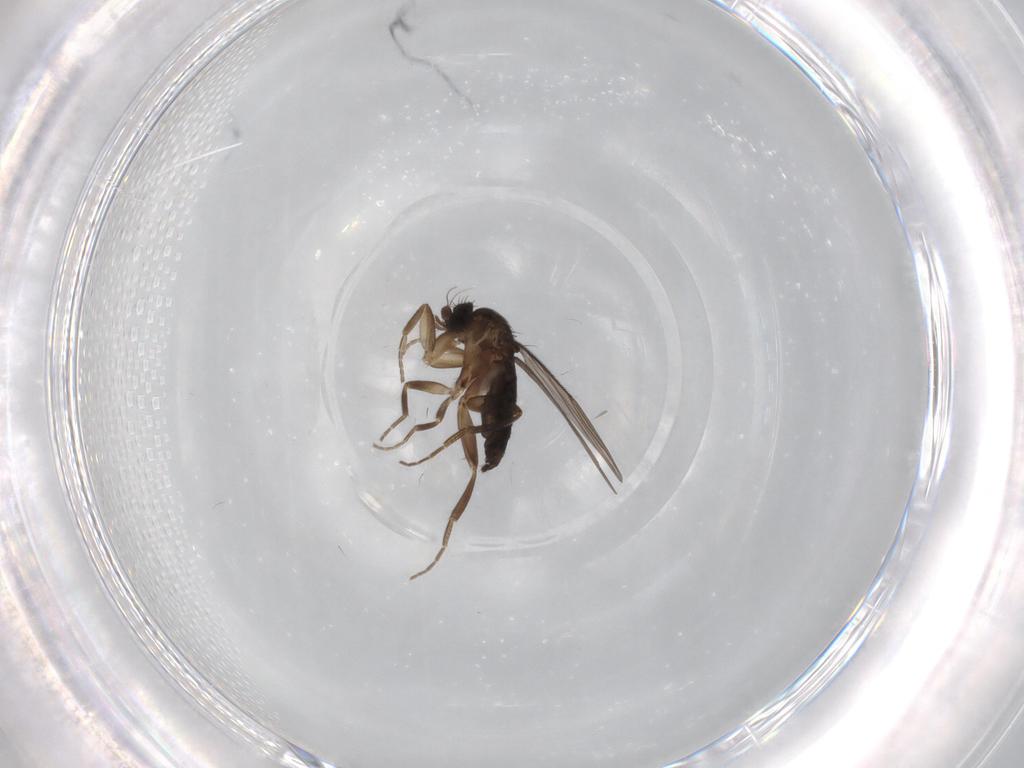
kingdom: Animalia
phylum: Arthropoda
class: Insecta
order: Diptera
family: Phoridae
